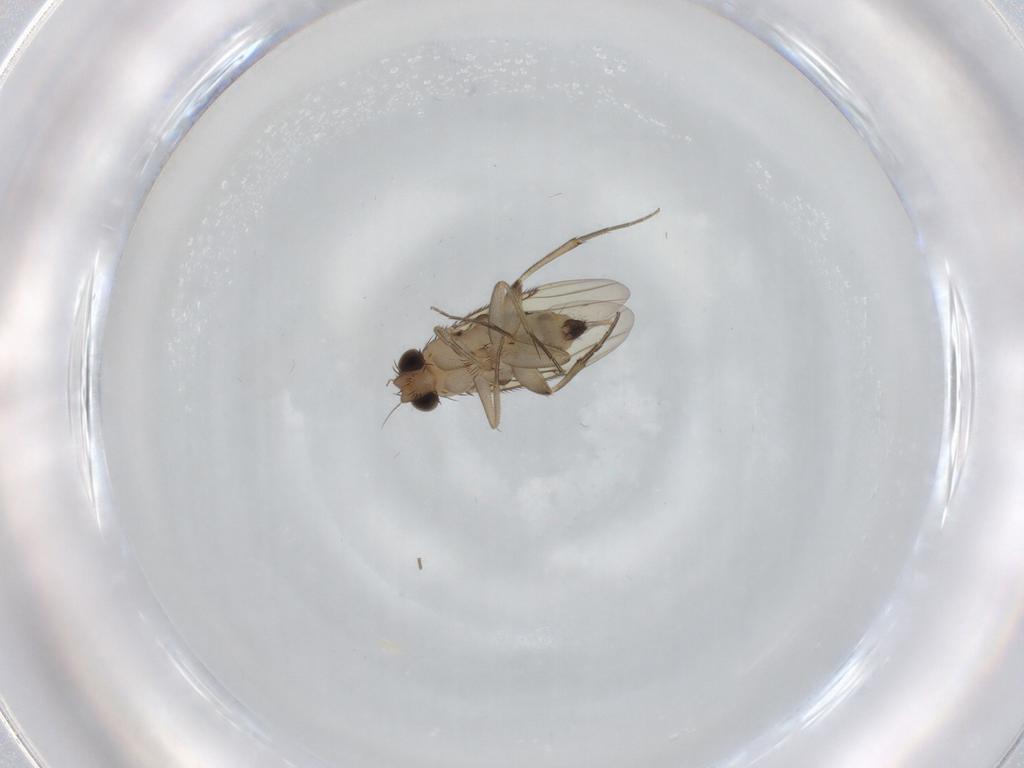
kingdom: Animalia
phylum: Arthropoda
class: Insecta
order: Diptera
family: Phoridae
